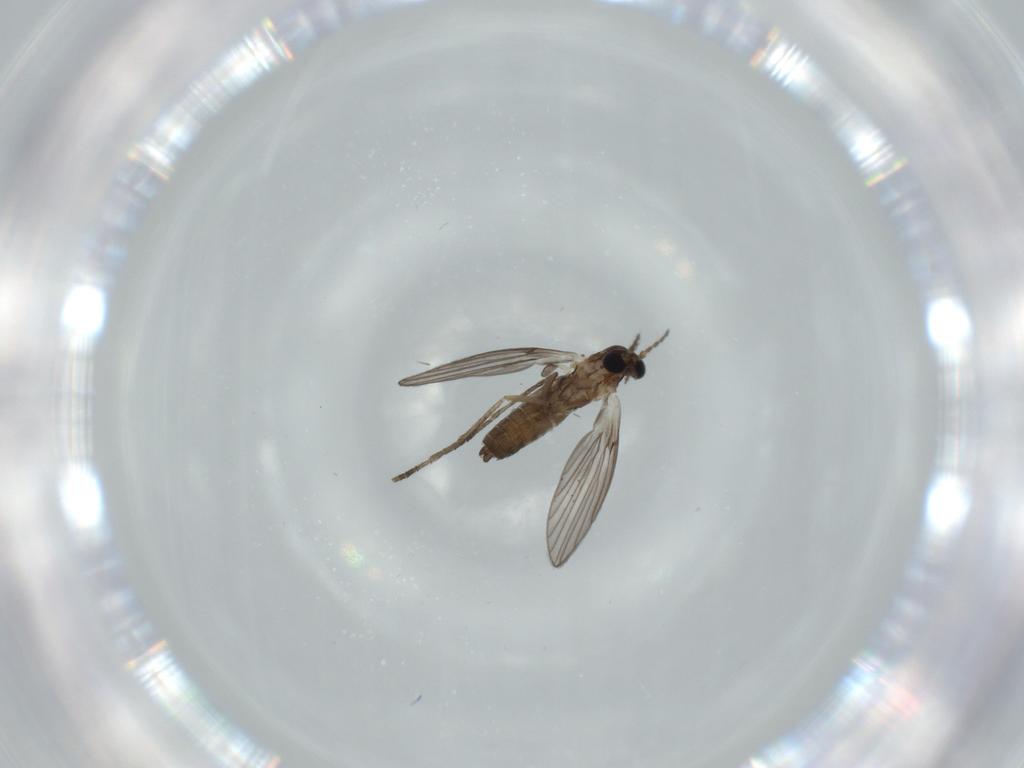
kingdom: Animalia
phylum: Arthropoda
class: Insecta
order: Diptera
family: Psychodidae
